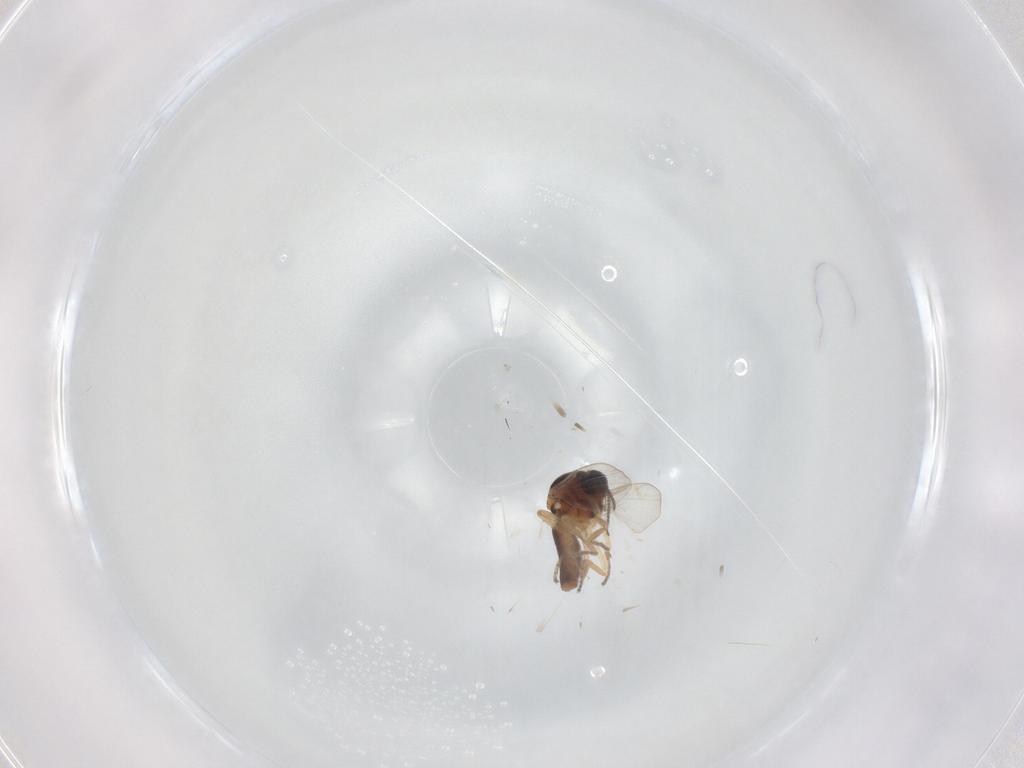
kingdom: Animalia
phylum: Arthropoda
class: Insecta
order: Diptera
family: Ceratopogonidae
